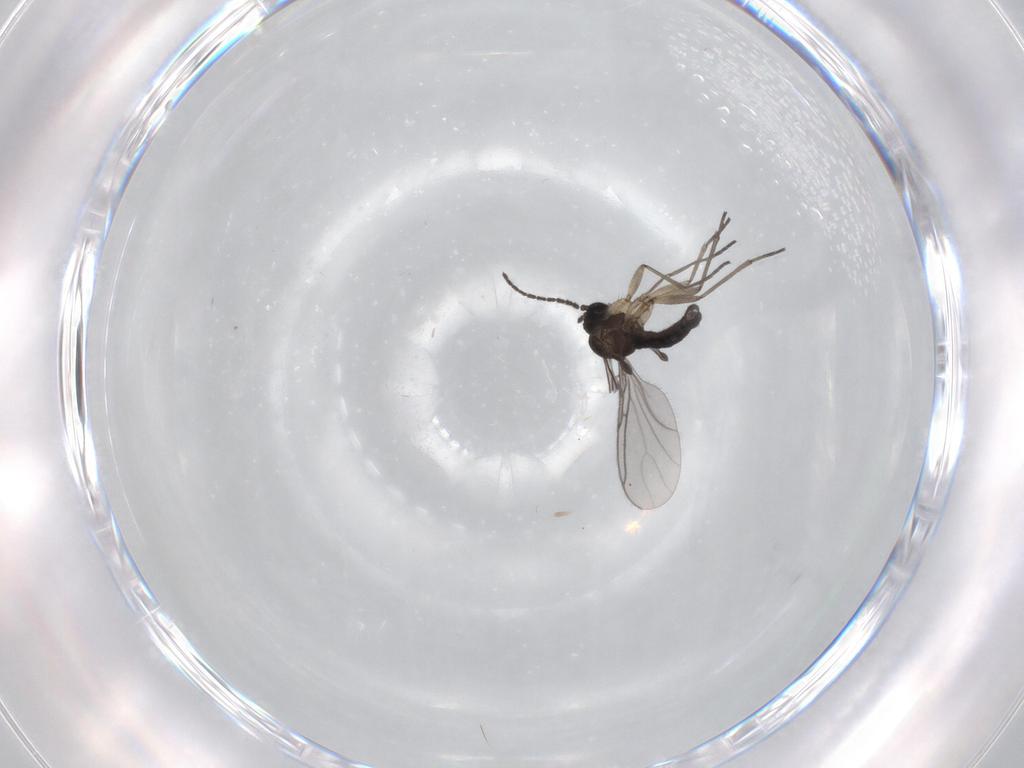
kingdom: Animalia
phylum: Arthropoda
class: Insecta
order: Diptera
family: Sciaridae
